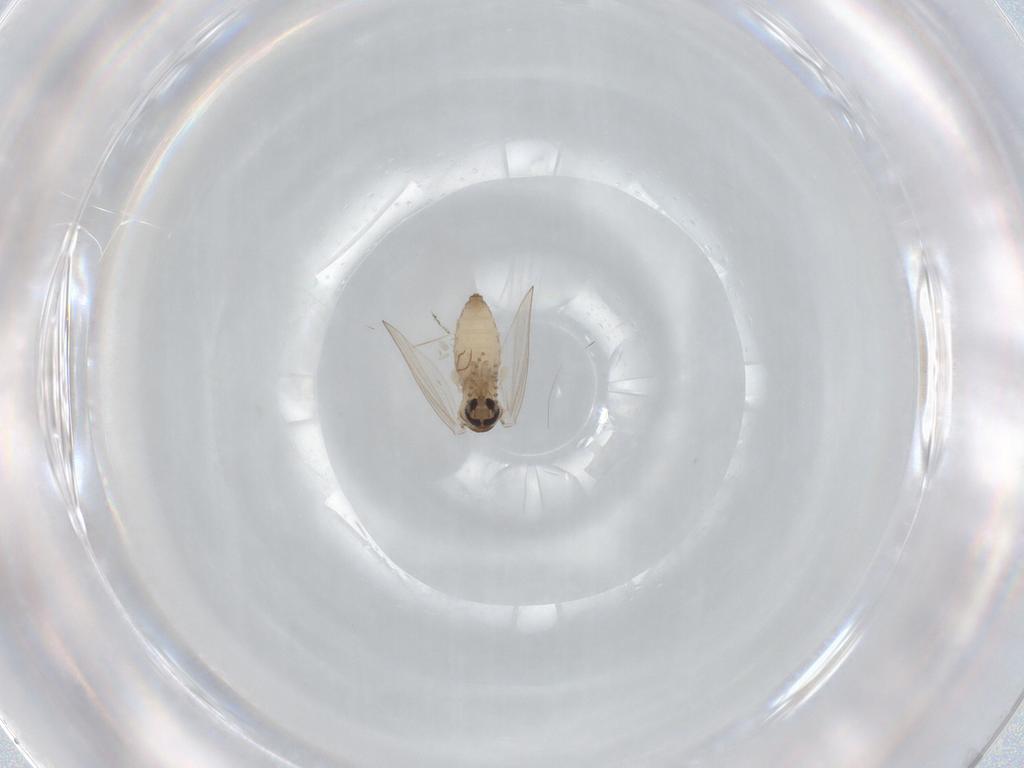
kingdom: Animalia
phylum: Arthropoda
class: Insecta
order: Diptera
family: Psychodidae
